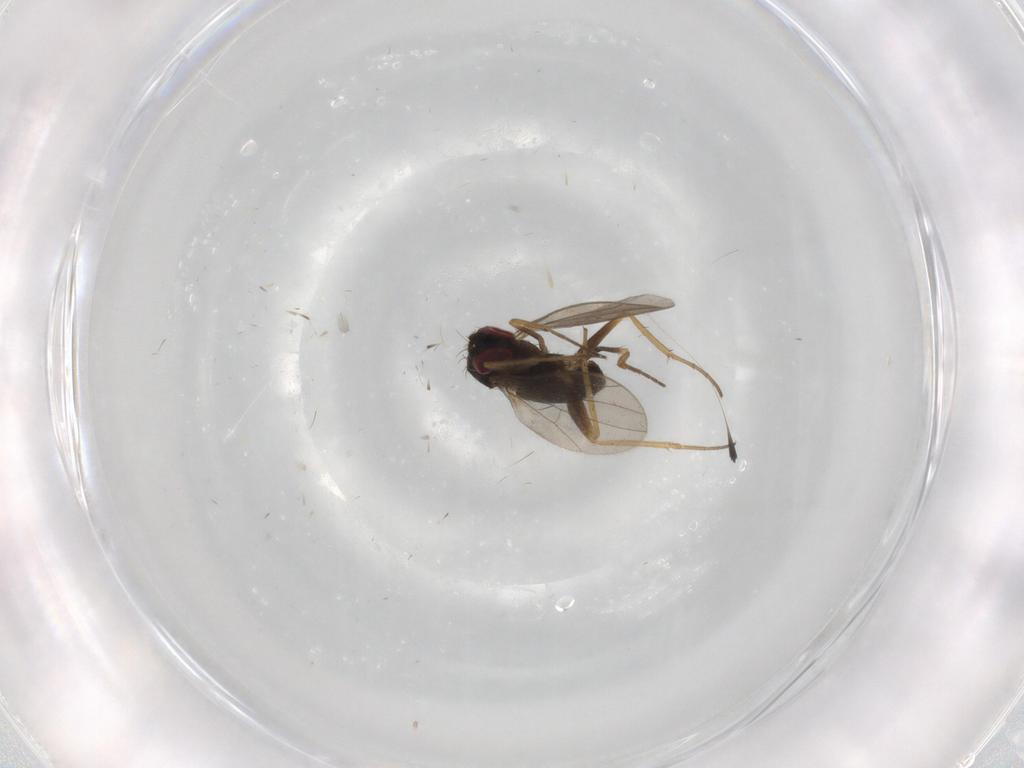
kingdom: Animalia
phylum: Arthropoda
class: Insecta
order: Diptera
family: Dolichopodidae
